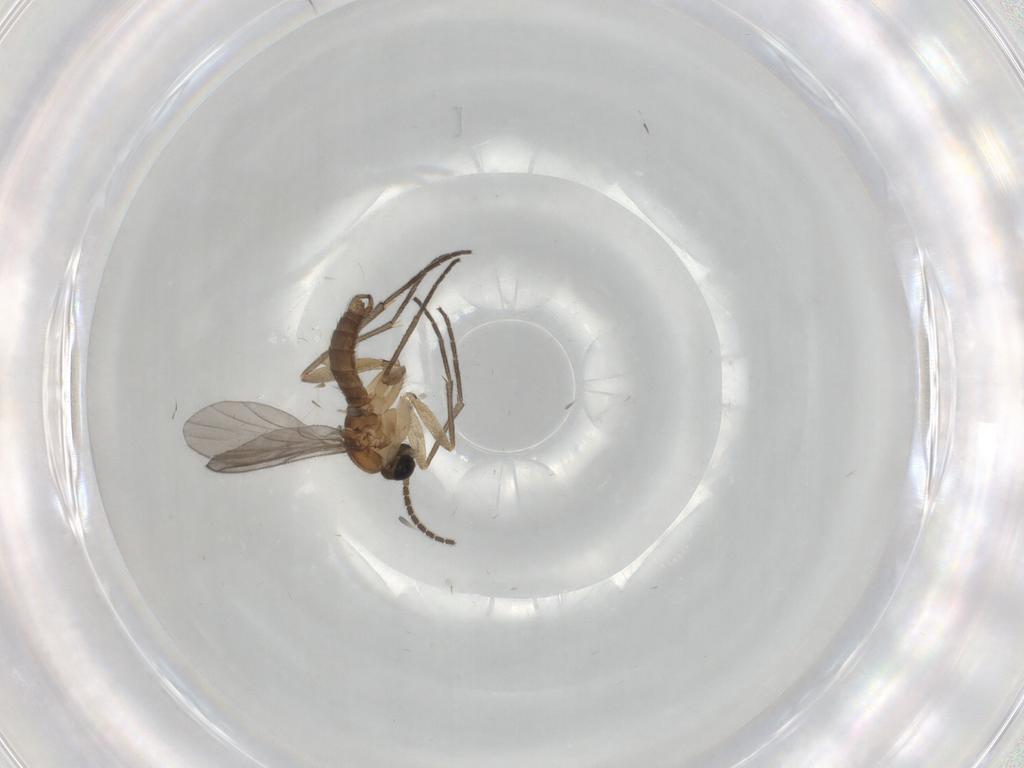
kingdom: Animalia
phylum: Arthropoda
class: Insecta
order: Diptera
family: Sciaridae
